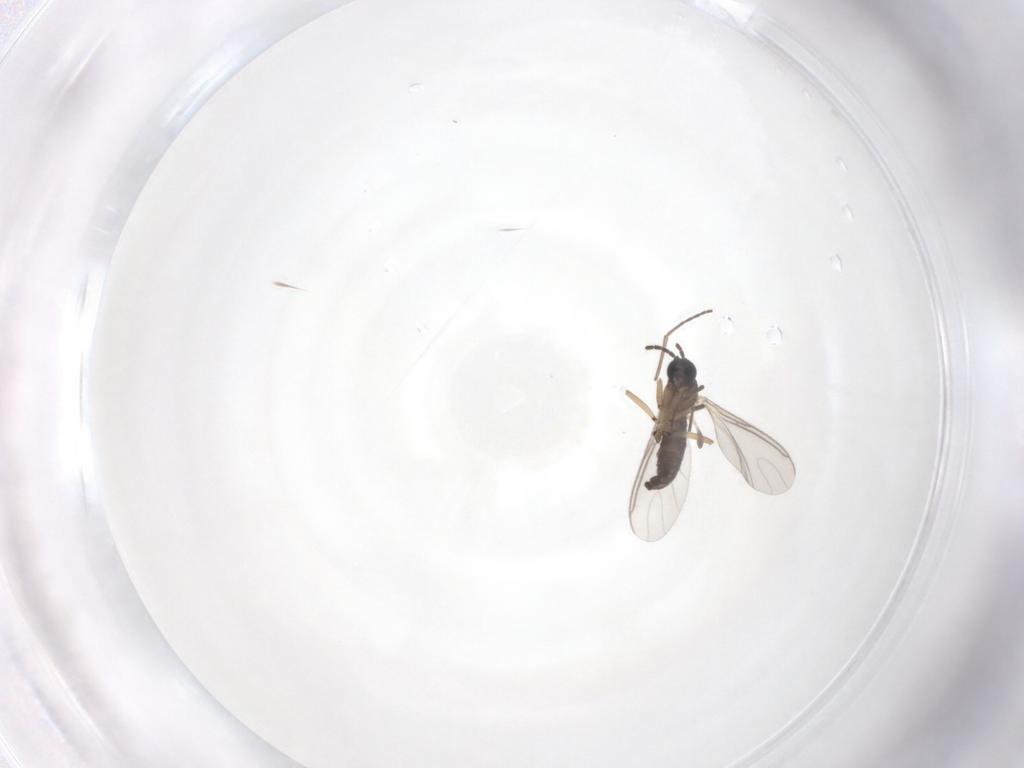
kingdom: Animalia
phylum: Arthropoda
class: Insecta
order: Diptera
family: Sciaridae
